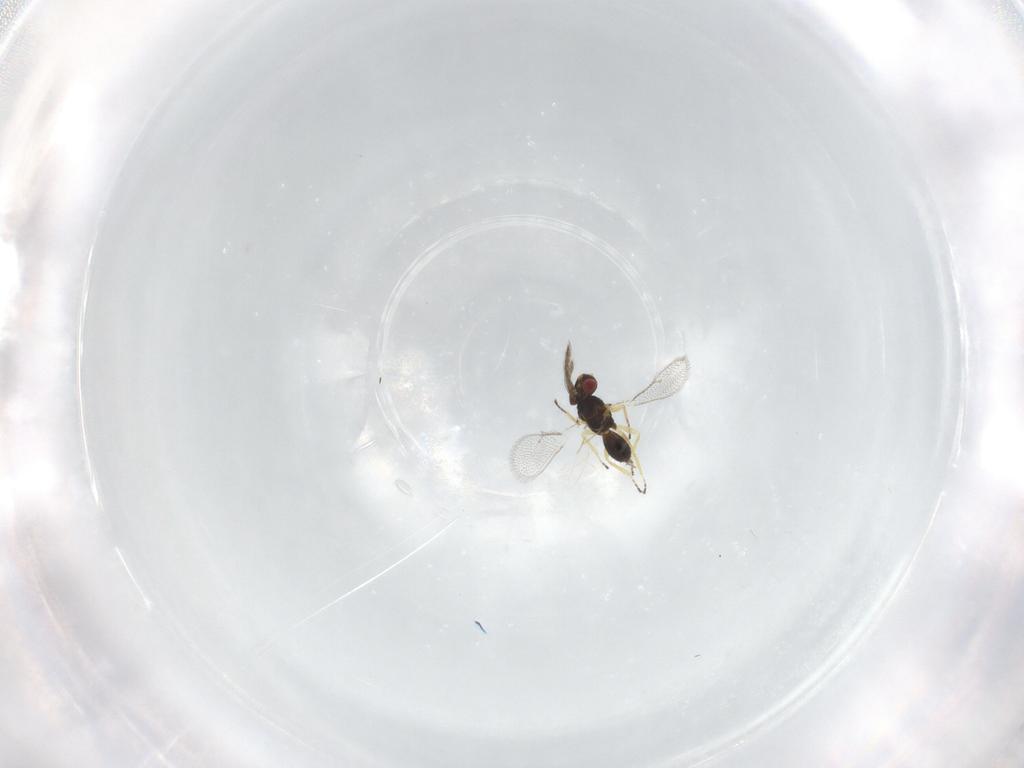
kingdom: Animalia
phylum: Arthropoda
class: Insecta
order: Hymenoptera
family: Eulophidae
